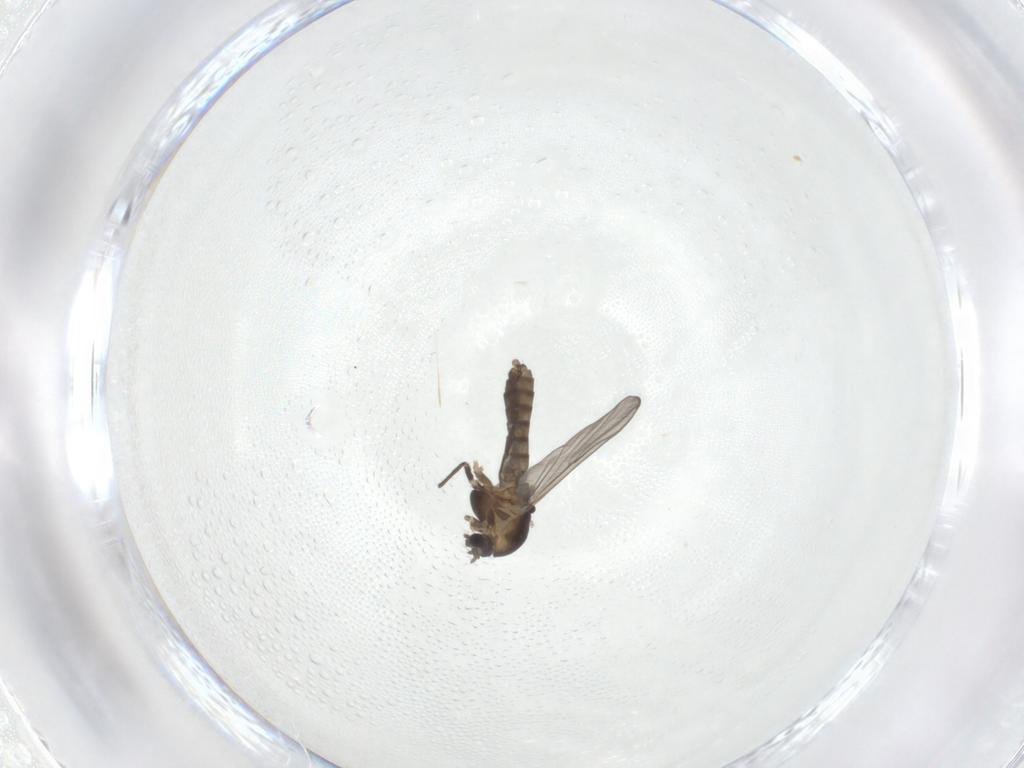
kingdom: Animalia
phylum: Arthropoda
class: Insecta
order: Diptera
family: Chironomidae
